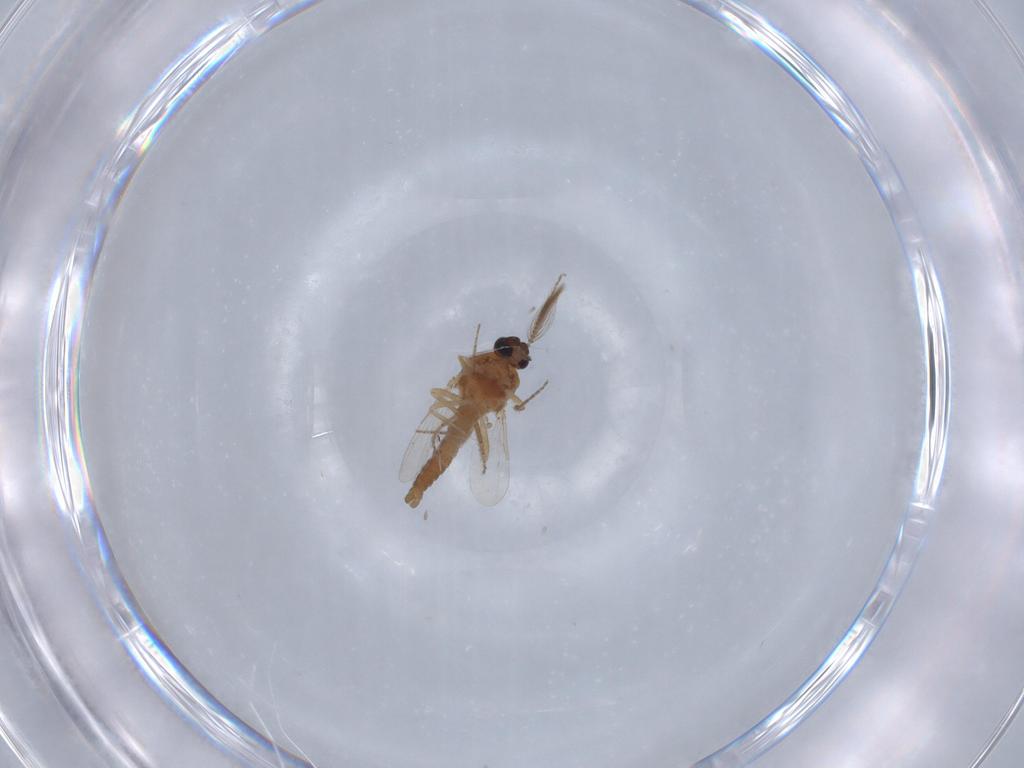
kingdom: Animalia
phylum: Arthropoda
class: Insecta
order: Diptera
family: Ceratopogonidae
